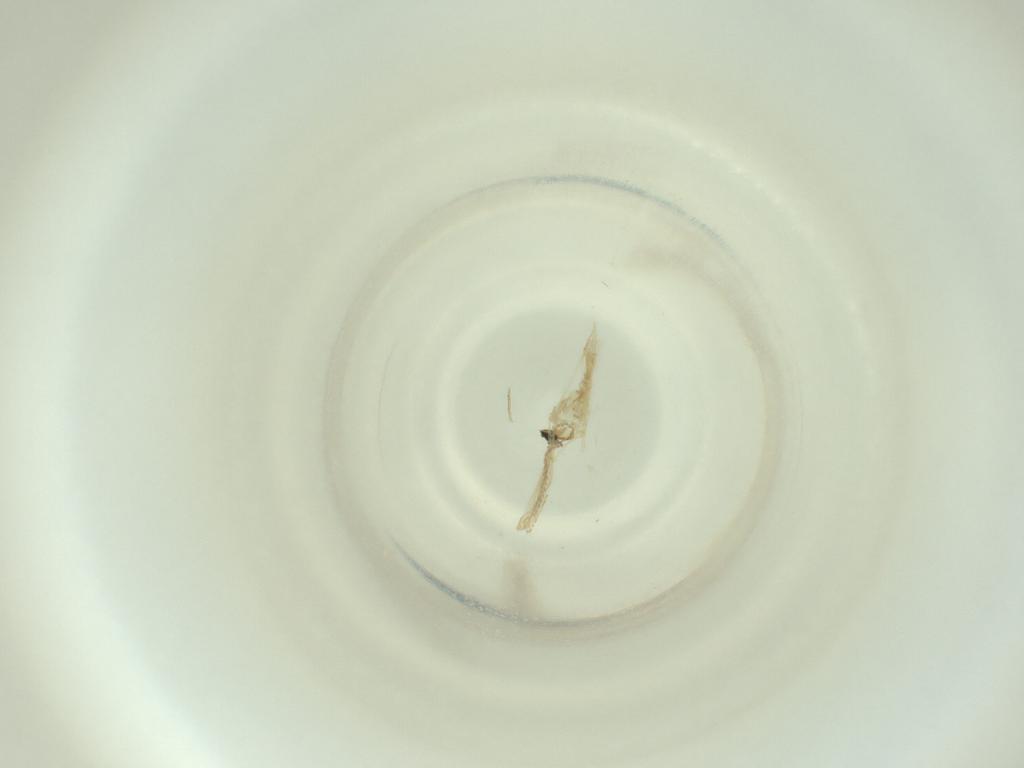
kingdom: Animalia
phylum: Arthropoda
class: Insecta
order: Diptera
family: Cecidomyiidae
